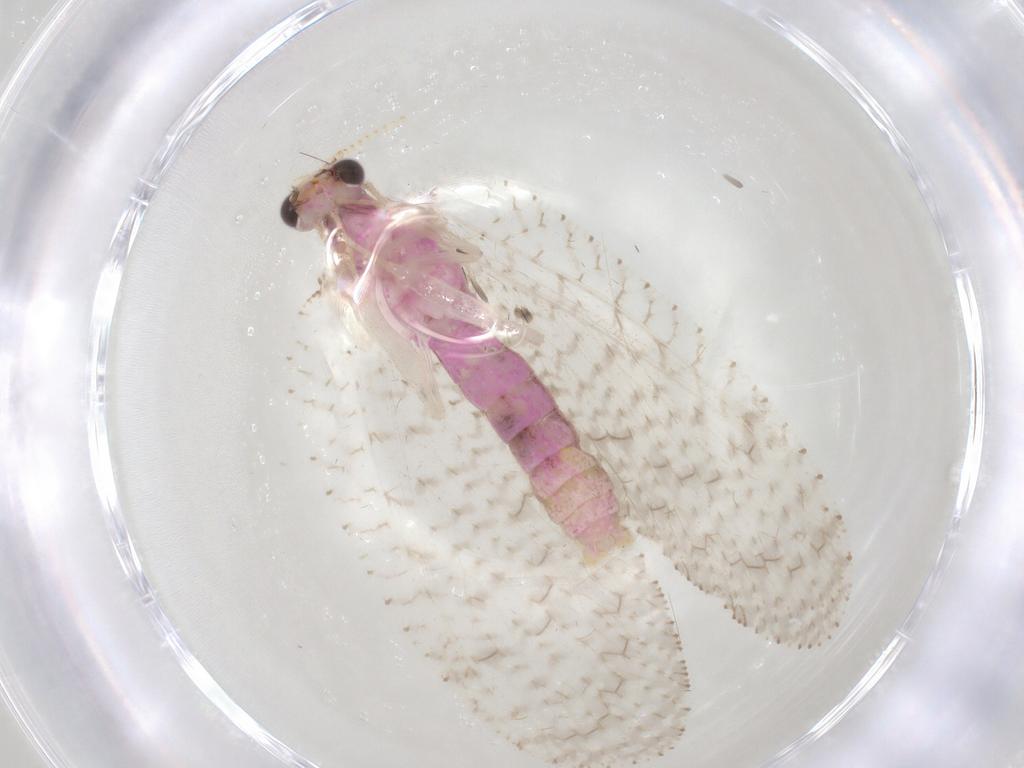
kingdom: Animalia
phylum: Arthropoda
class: Insecta
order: Neuroptera
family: Hemerobiidae
